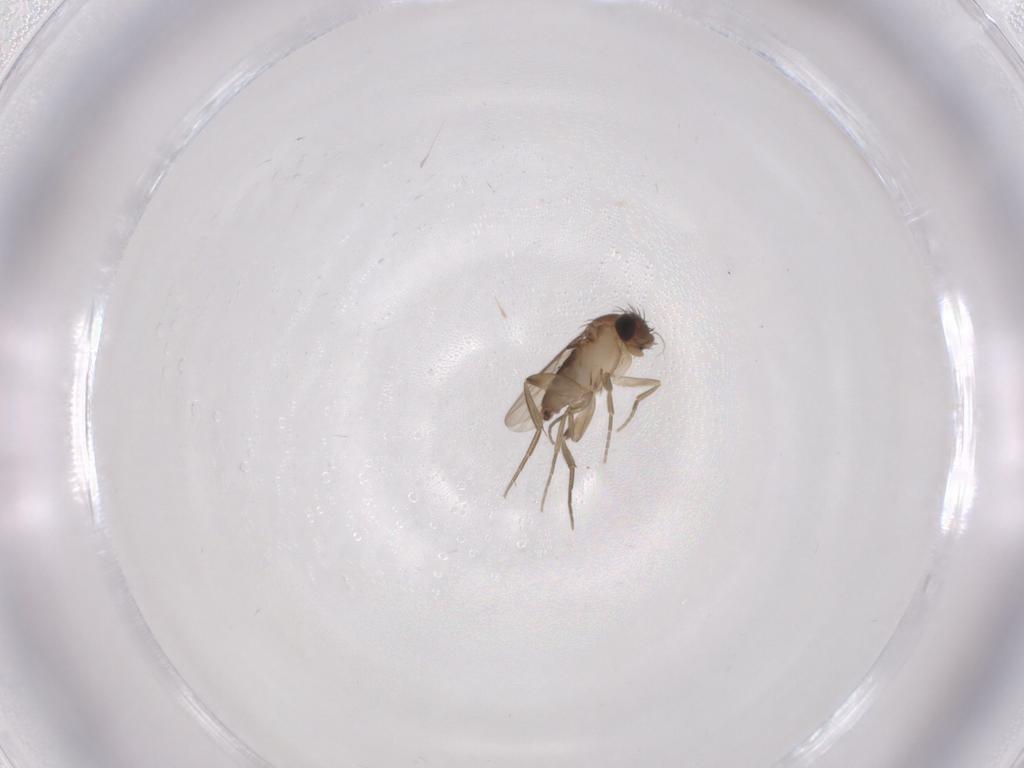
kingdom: Animalia
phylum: Arthropoda
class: Insecta
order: Diptera
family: Phoridae
